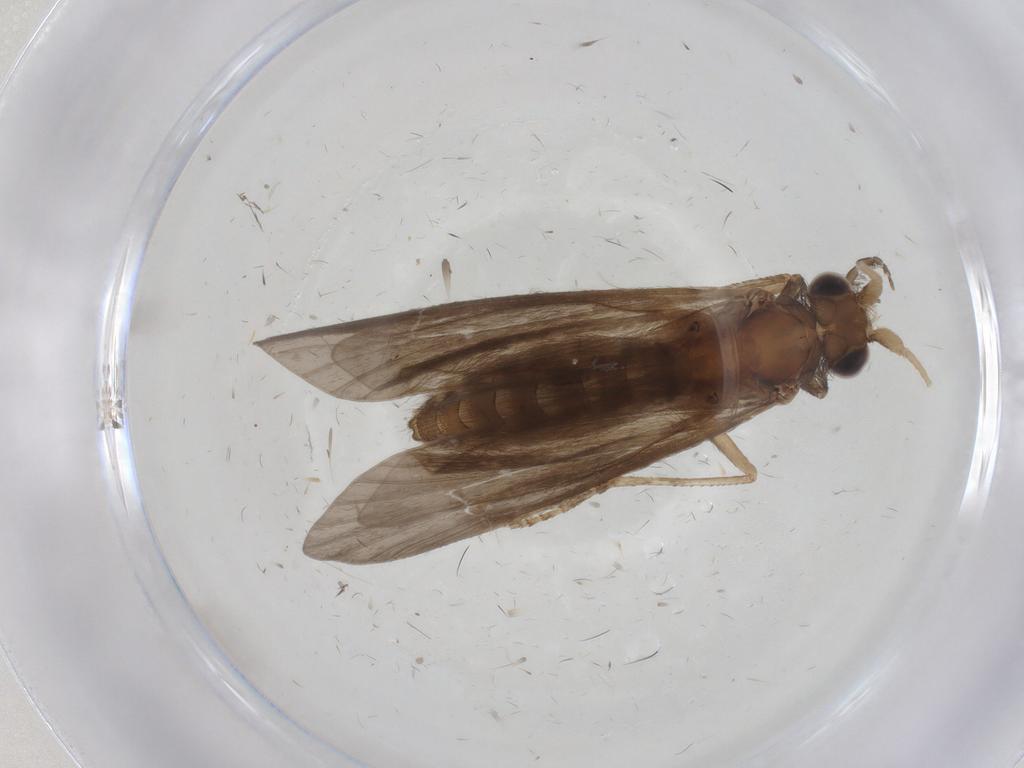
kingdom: Animalia
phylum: Arthropoda
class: Insecta
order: Trichoptera
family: Helicopsychidae
